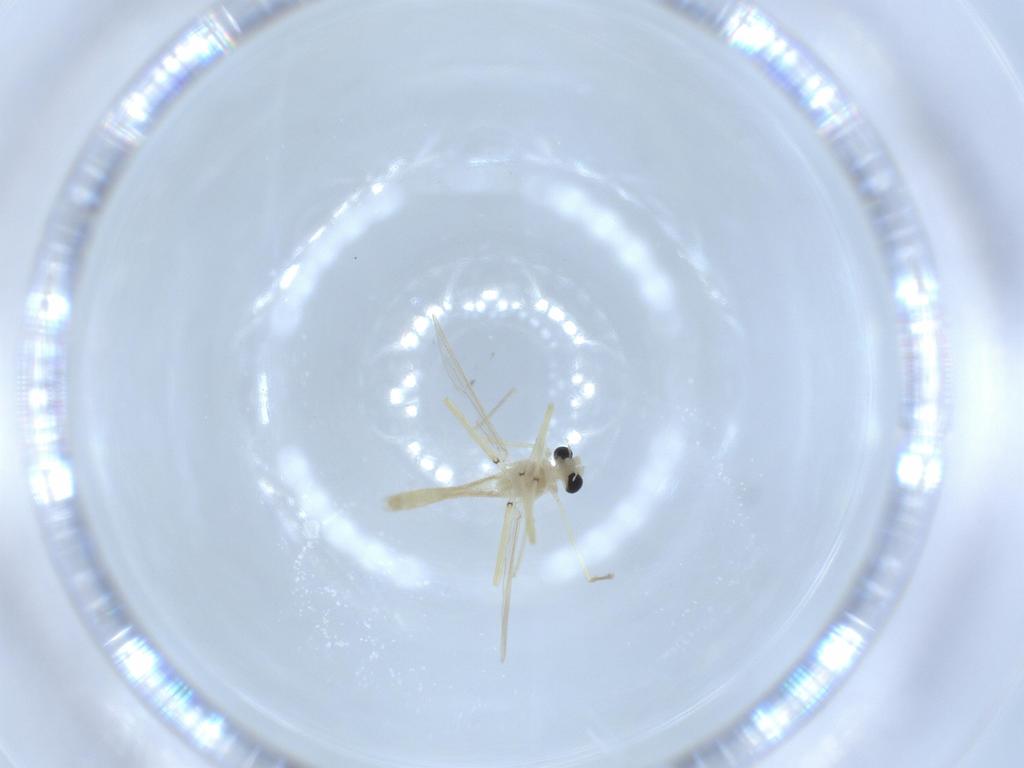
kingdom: Animalia
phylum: Arthropoda
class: Insecta
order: Diptera
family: Chironomidae
